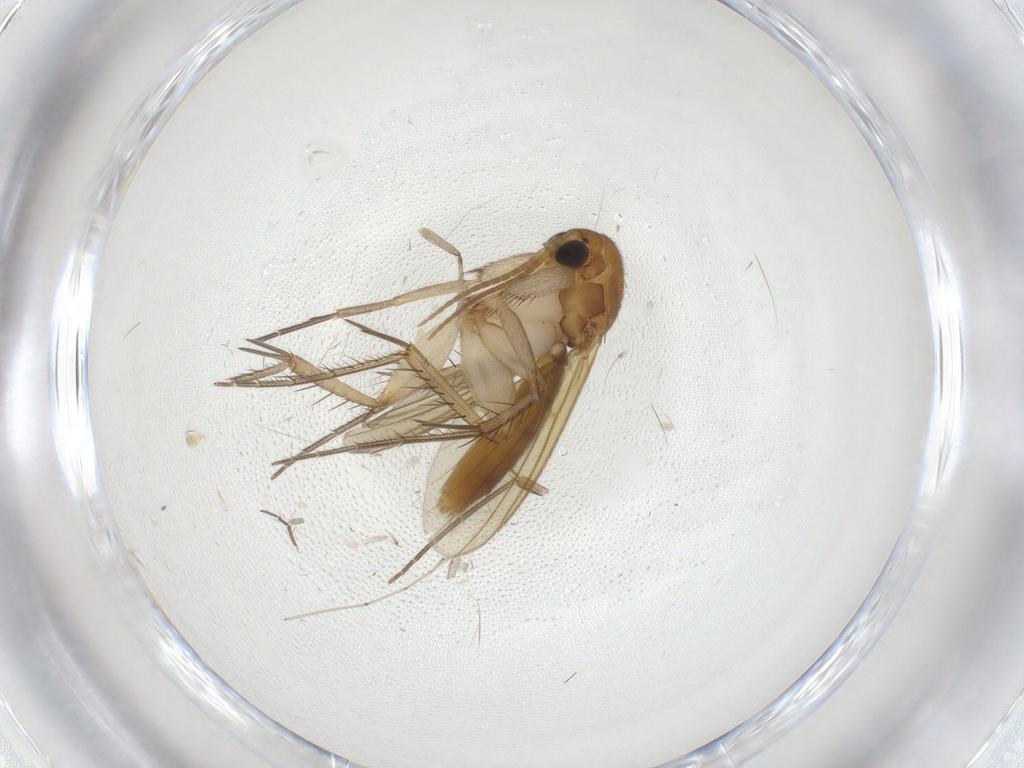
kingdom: Animalia
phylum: Arthropoda
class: Insecta
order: Diptera
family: Mycetophilidae
